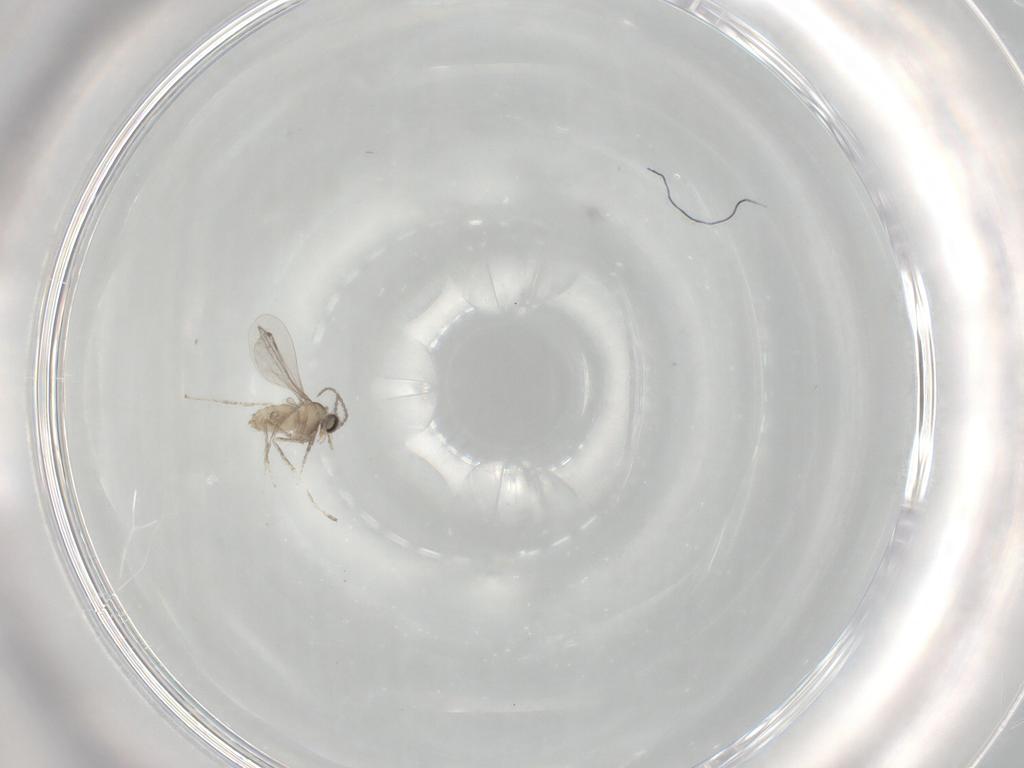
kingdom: Animalia
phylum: Arthropoda
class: Insecta
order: Diptera
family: Cecidomyiidae
